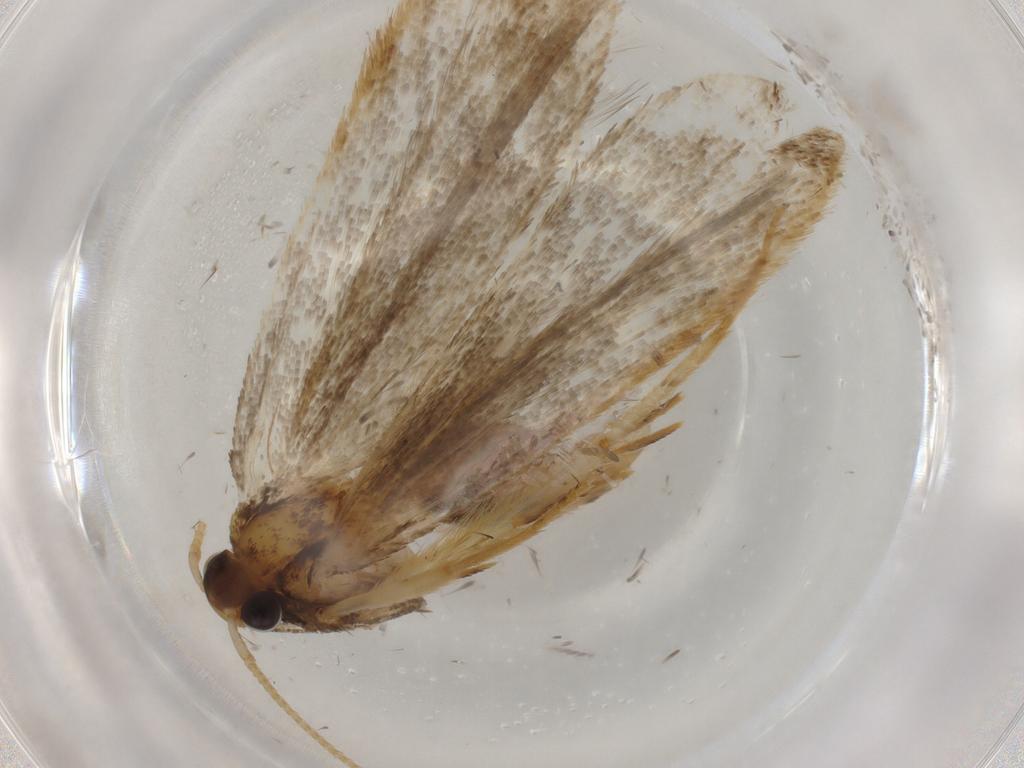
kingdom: Animalia
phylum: Arthropoda
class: Insecta
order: Lepidoptera
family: Lecithoceridae
